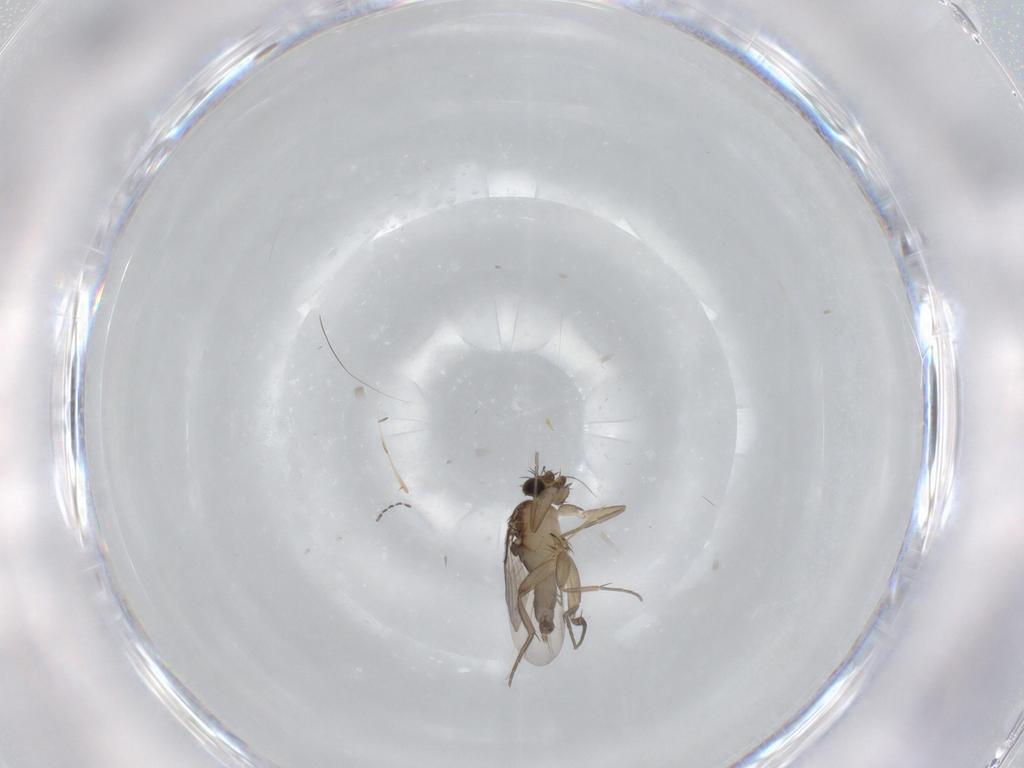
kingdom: Animalia
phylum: Arthropoda
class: Insecta
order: Diptera
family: Phoridae
